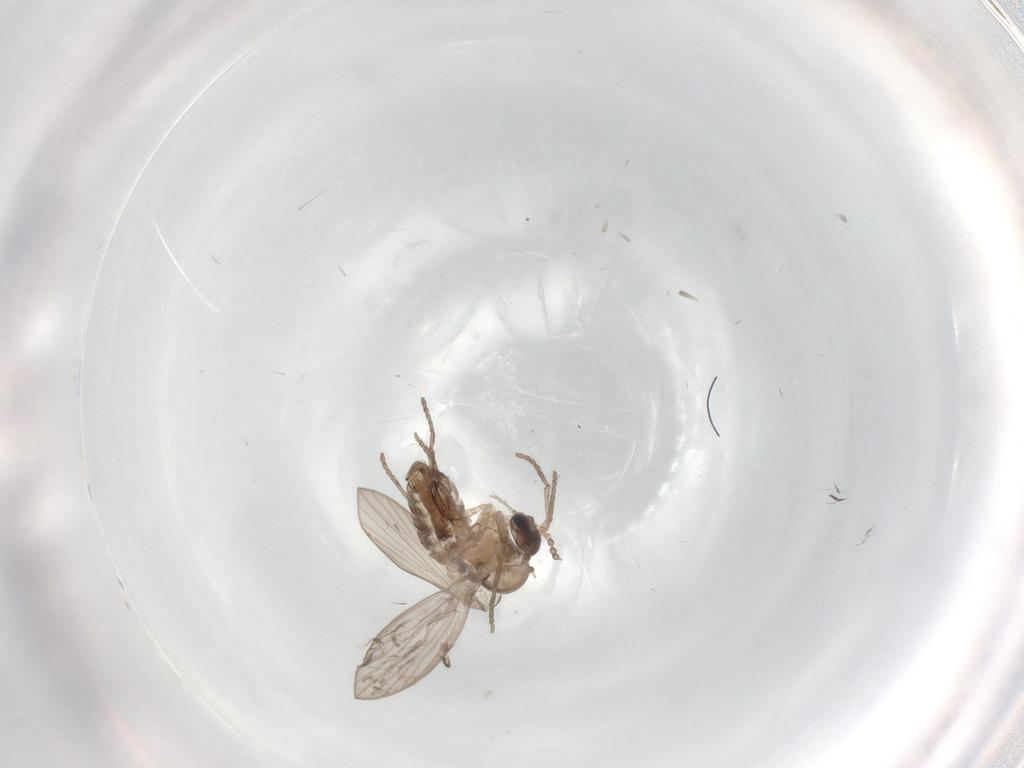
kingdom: Animalia
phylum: Arthropoda
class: Insecta
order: Diptera
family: Psychodidae
